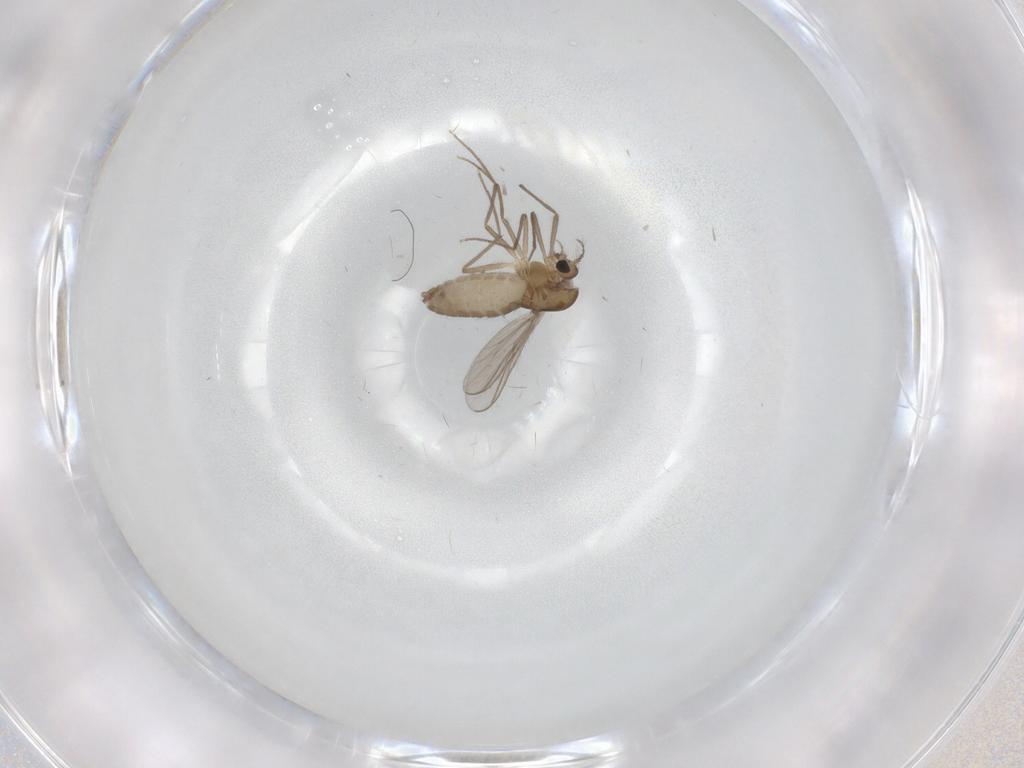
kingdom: Animalia
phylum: Arthropoda
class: Insecta
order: Diptera
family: Chironomidae
